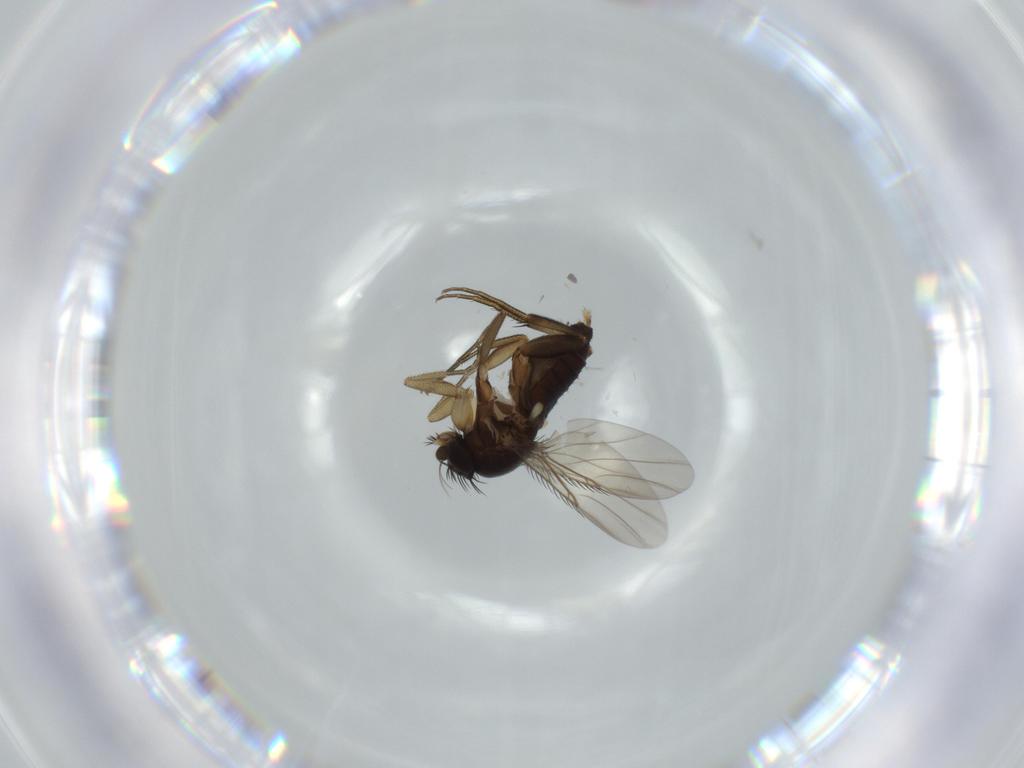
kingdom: Animalia
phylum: Arthropoda
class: Insecta
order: Diptera
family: Phoridae
